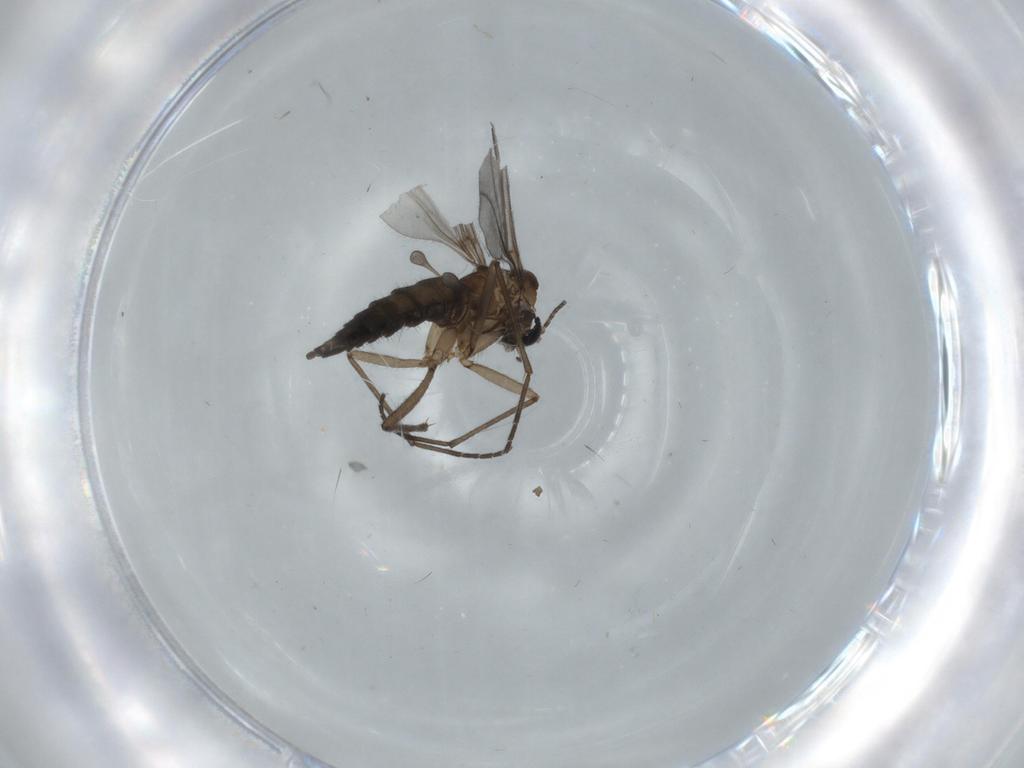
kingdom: Animalia
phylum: Arthropoda
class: Insecta
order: Diptera
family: Sciaridae
